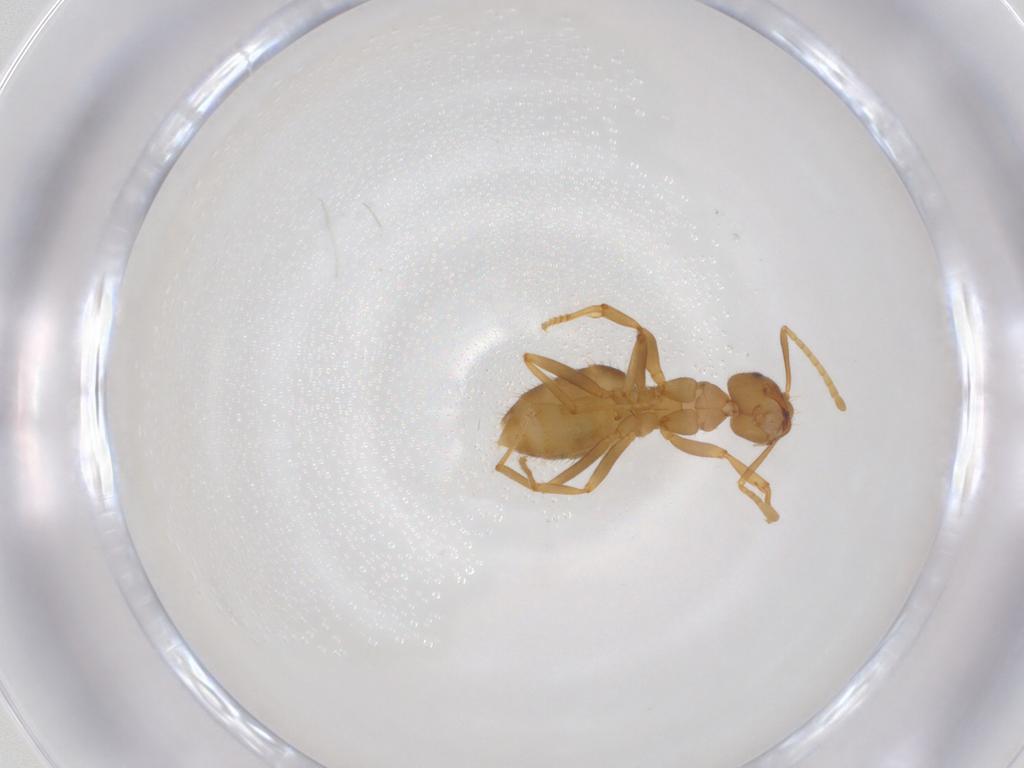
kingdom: Animalia
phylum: Arthropoda
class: Insecta
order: Hymenoptera
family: Formicidae
